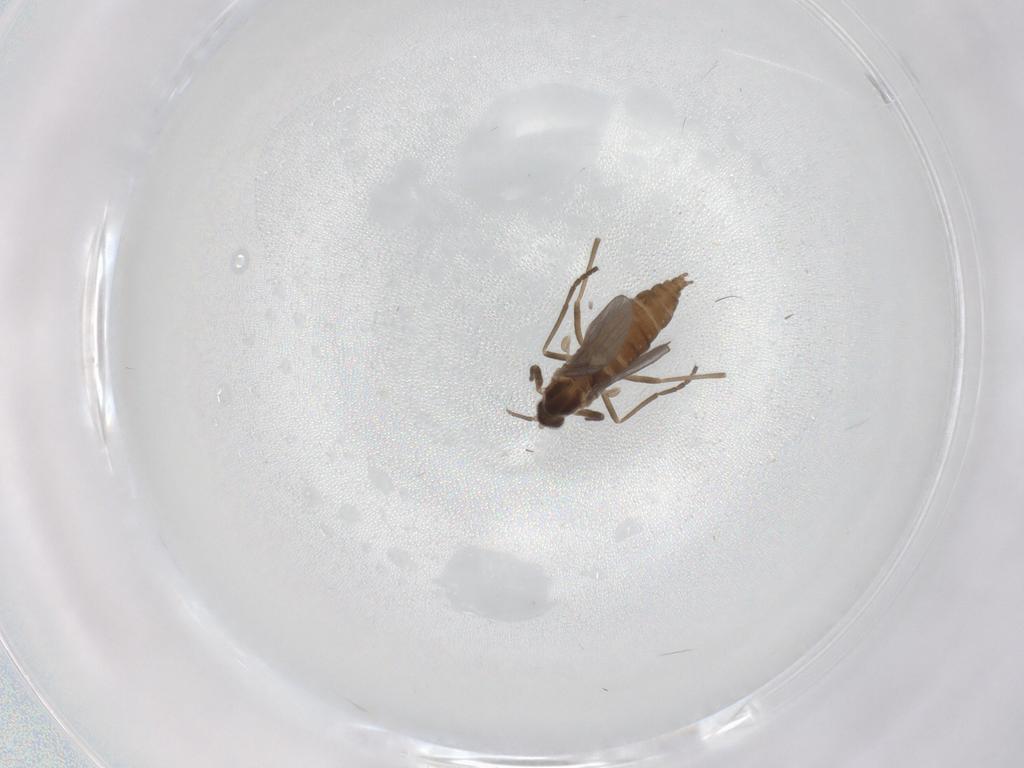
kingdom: Animalia
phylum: Arthropoda
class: Insecta
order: Diptera
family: Cecidomyiidae
